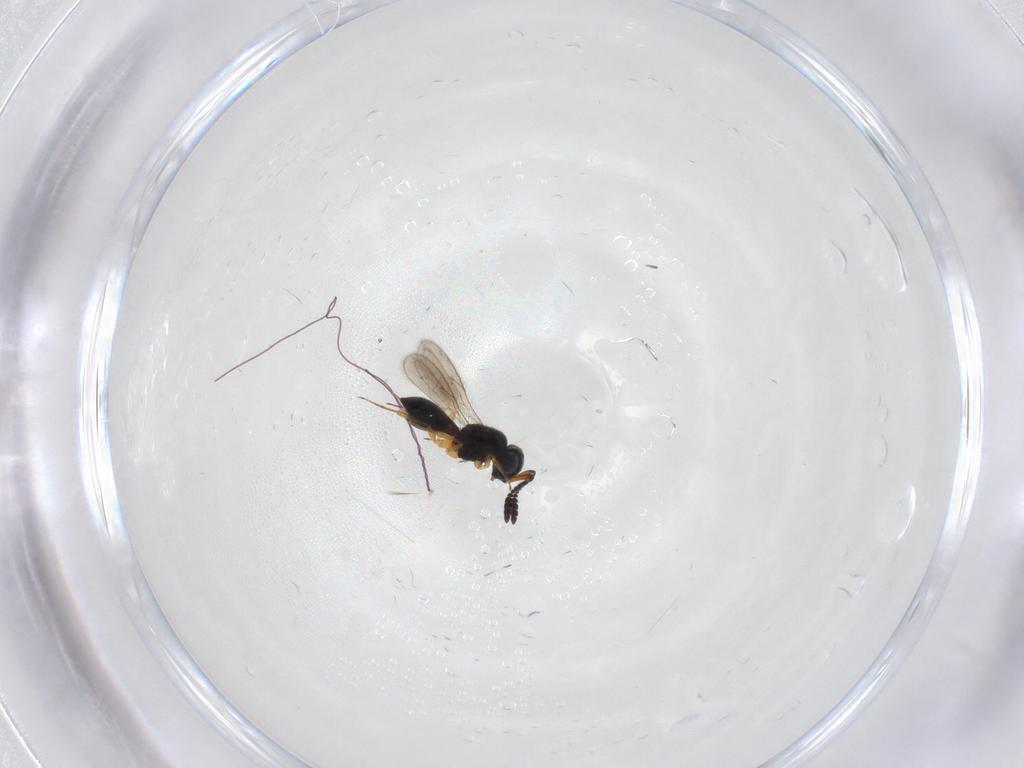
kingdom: Animalia
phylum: Arthropoda
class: Insecta
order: Hymenoptera
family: Scelionidae
